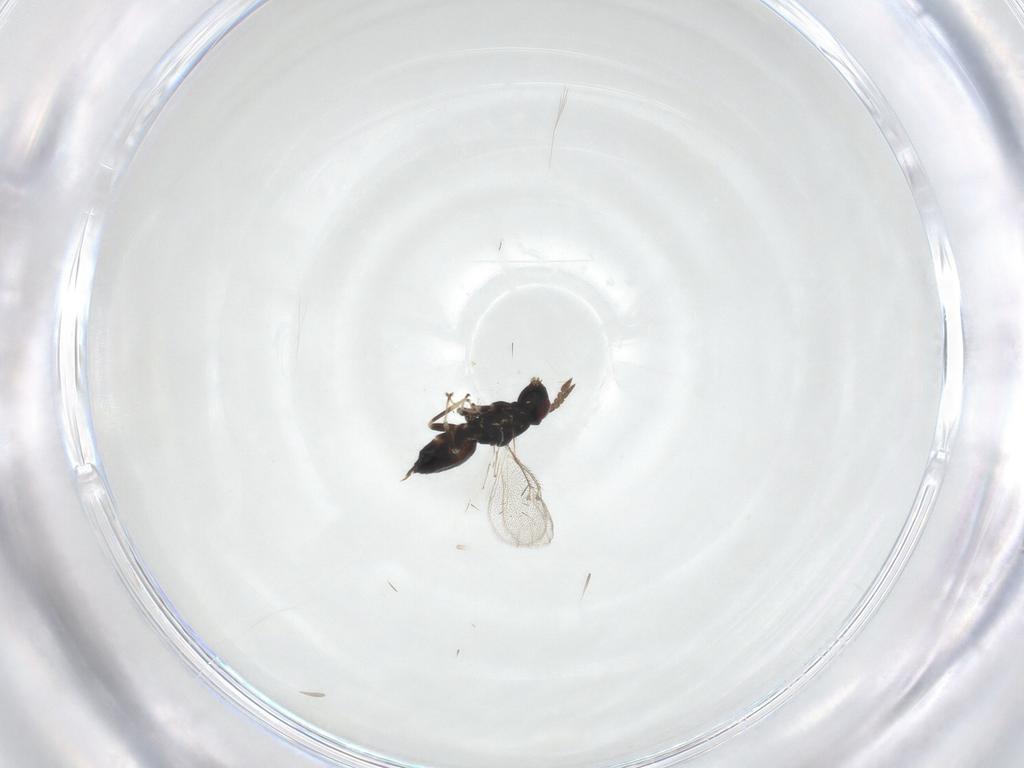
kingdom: Animalia
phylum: Arthropoda
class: Insecta
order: Hymenoptera
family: Eulophidae
